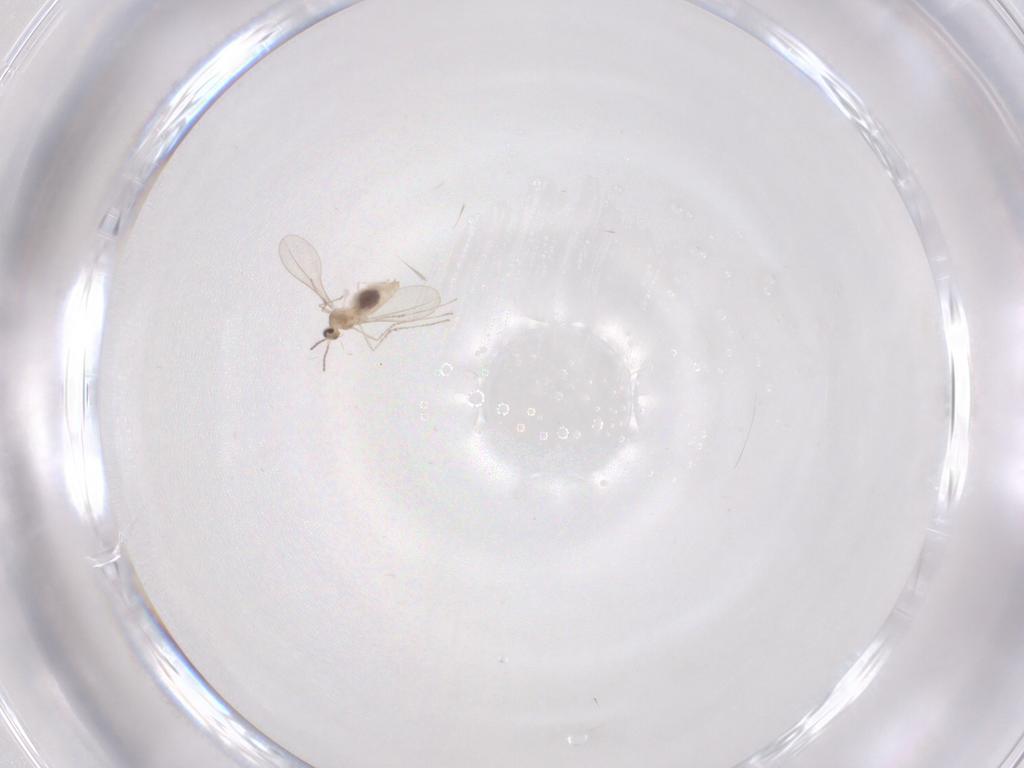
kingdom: Animalia
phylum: Arthropoda
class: Insecta
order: Diptera
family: Cecidomyiidae
